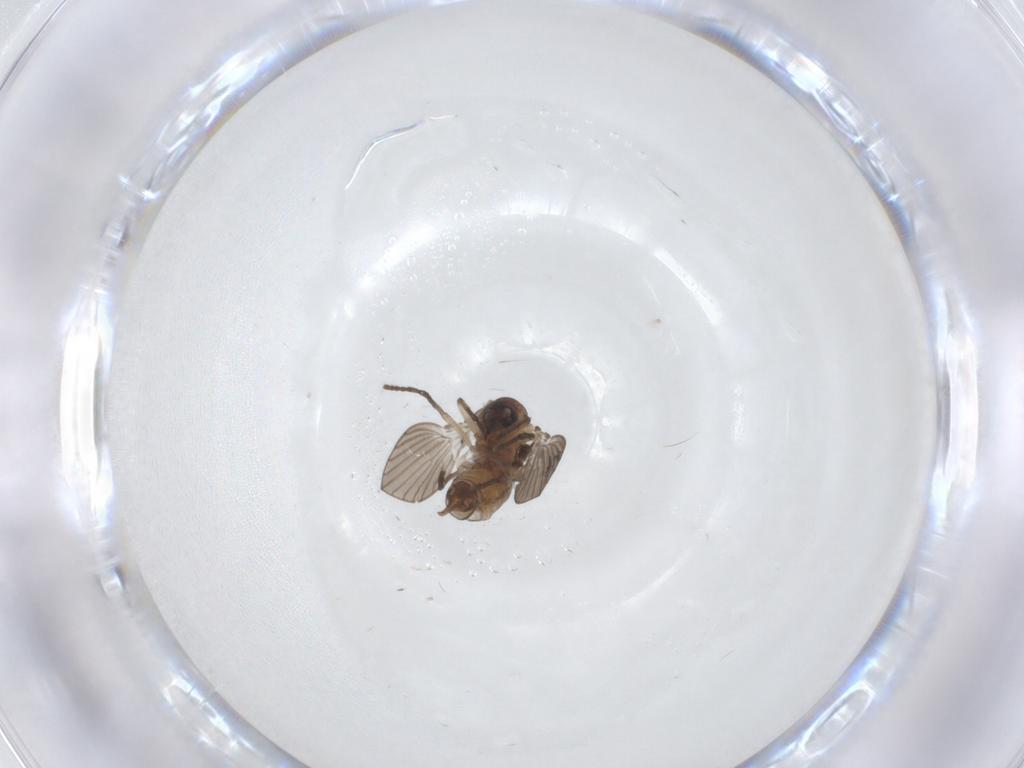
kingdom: Animalia
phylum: Arthropoda
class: Insecta
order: Diptera
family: Psychodidae
